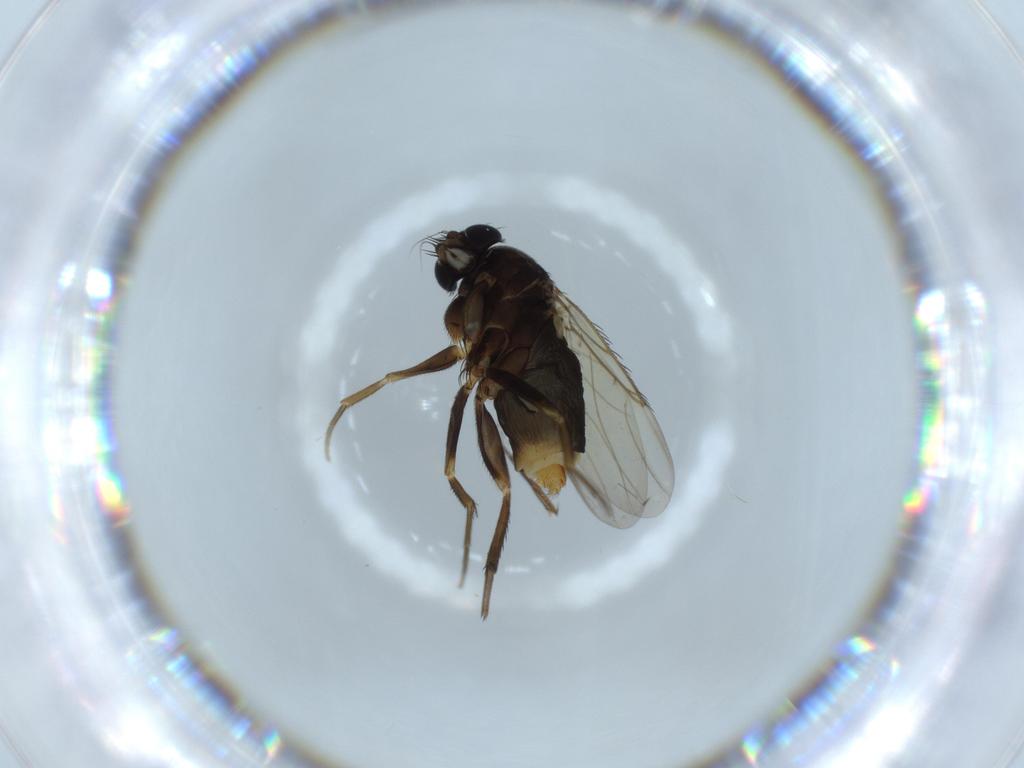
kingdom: Animalia
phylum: Arthropoda
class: Insecta
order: Diptera
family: Phoridae
